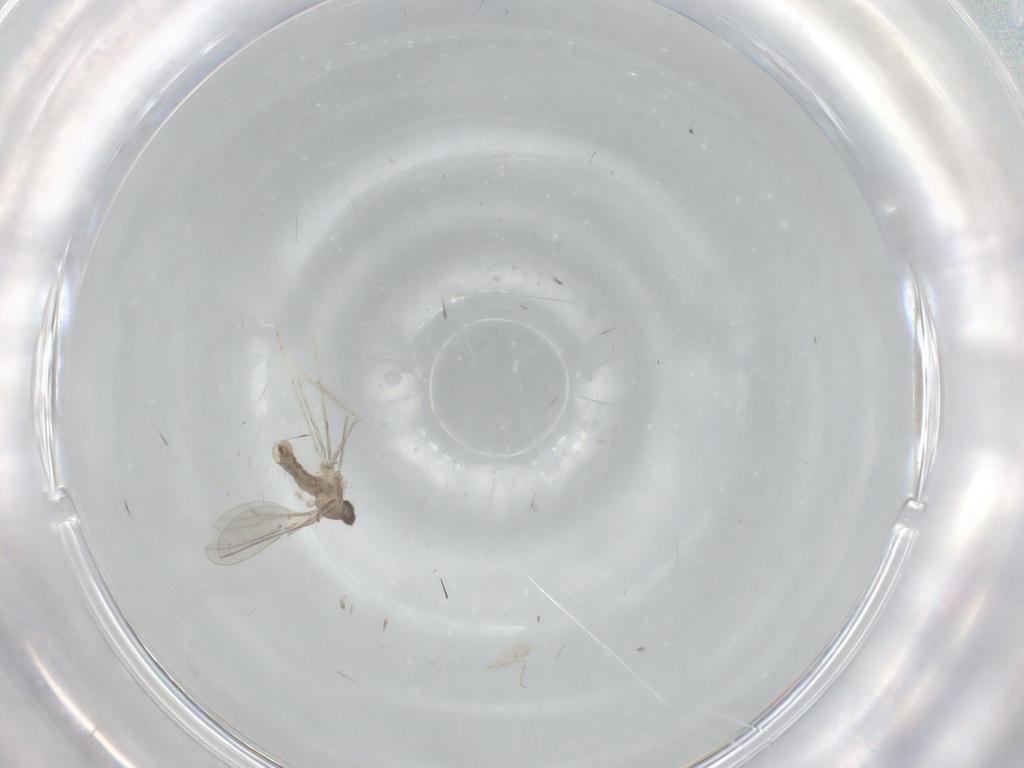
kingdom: Animalia
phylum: Arthropoda
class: Insecta
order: Diptera
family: Cecidomyiidae
